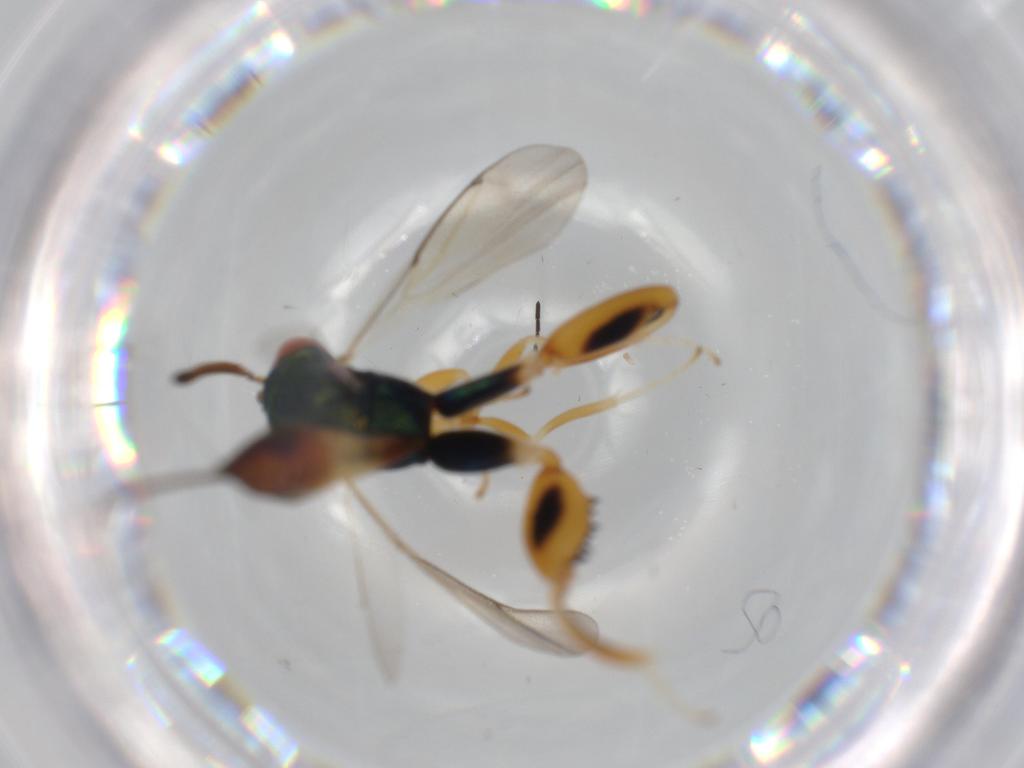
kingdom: Animalia
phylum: Arthropoda
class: Insecta
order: Hymenoptera
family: Torymidae
